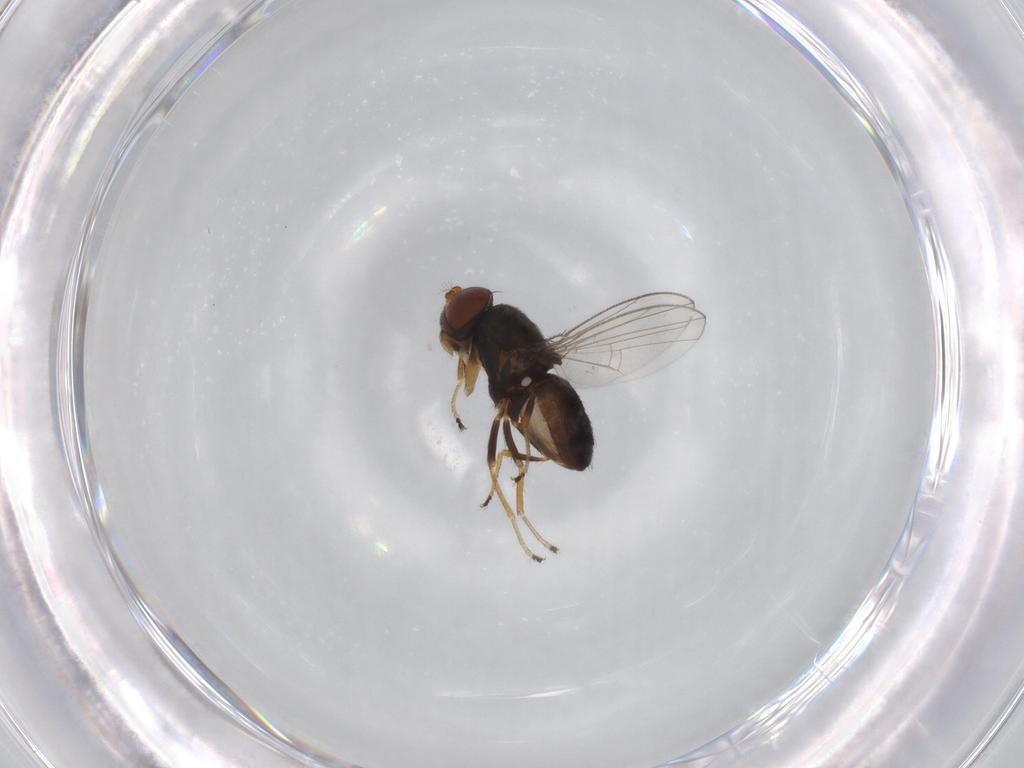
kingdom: Animalia
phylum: Arthropoda
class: Insecta
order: Diptera
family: Ephydridae
